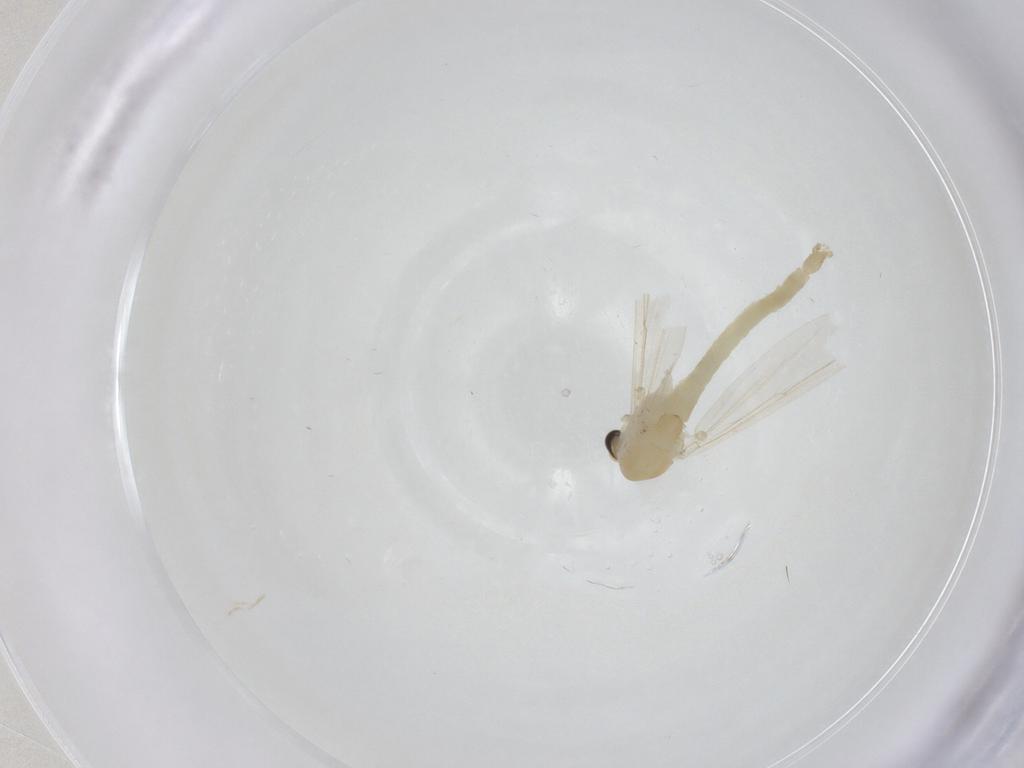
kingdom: Animalia
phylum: Arthropoda
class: Insecta
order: Diptera
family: Chironomidae
